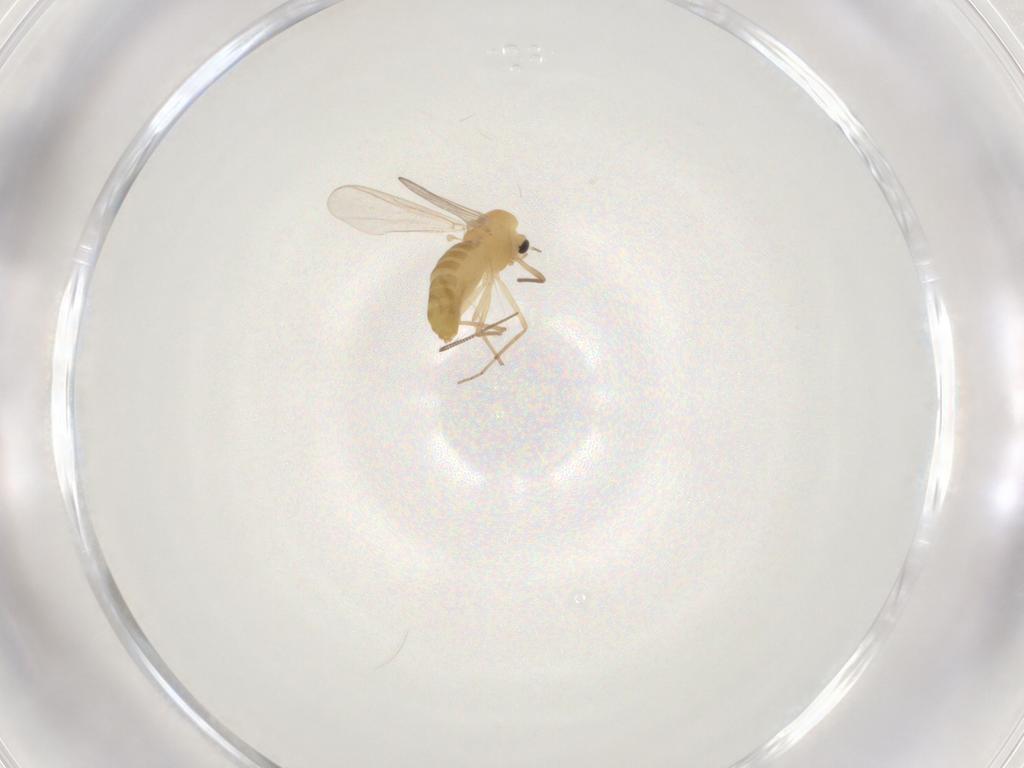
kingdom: Animalia
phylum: Arthropoda
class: Insecta
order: Diptera
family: Chironomidae
